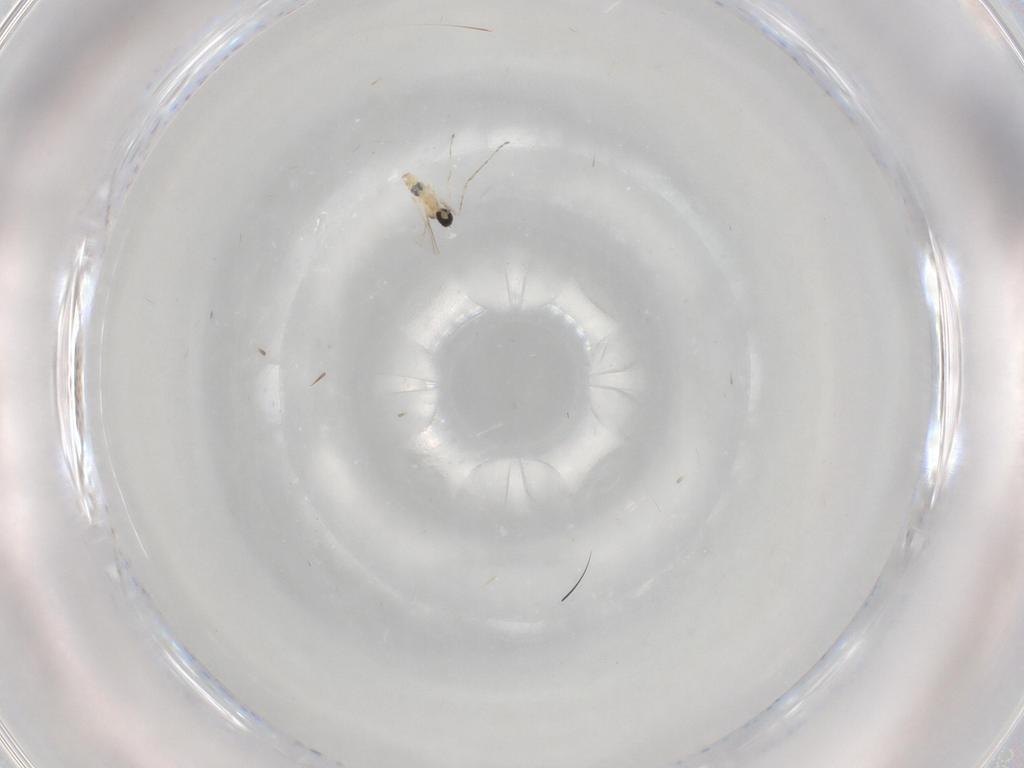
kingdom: Animalia
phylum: Arthropoda
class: Insecta
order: Diptera
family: Cecidomyiidae
